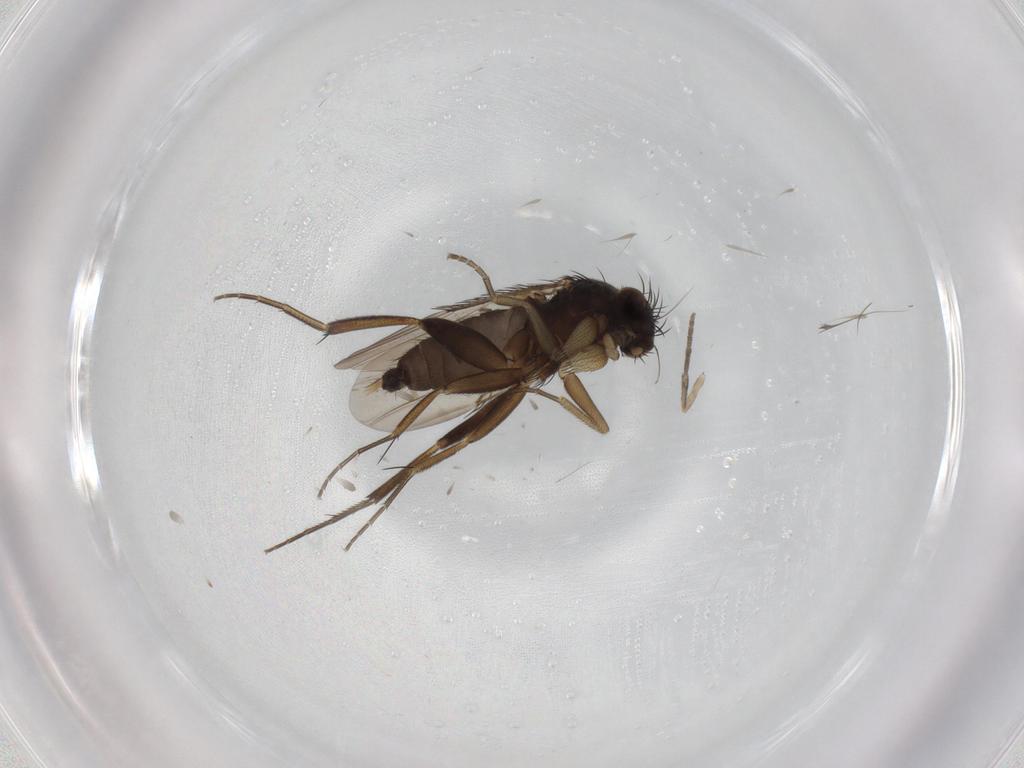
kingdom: Animalia
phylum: Arthropoda
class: Insecta
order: Diptera
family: Phoridae
